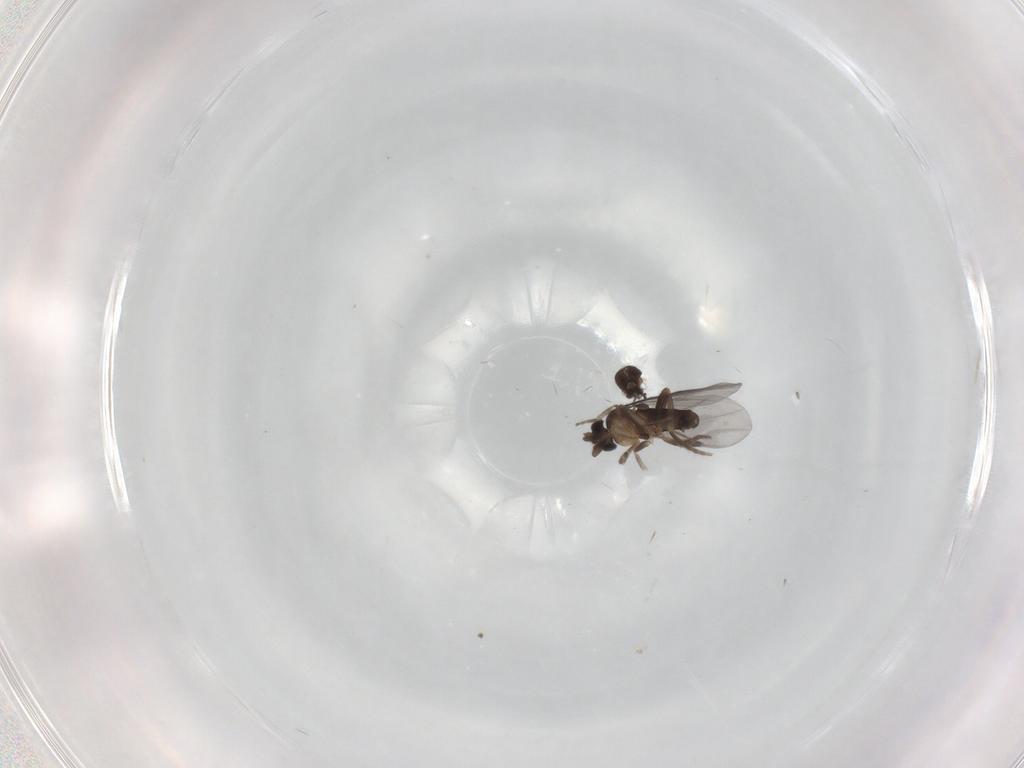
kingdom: Animalia
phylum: Arthropoda
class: Insecta
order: Diptera
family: Phoridae
